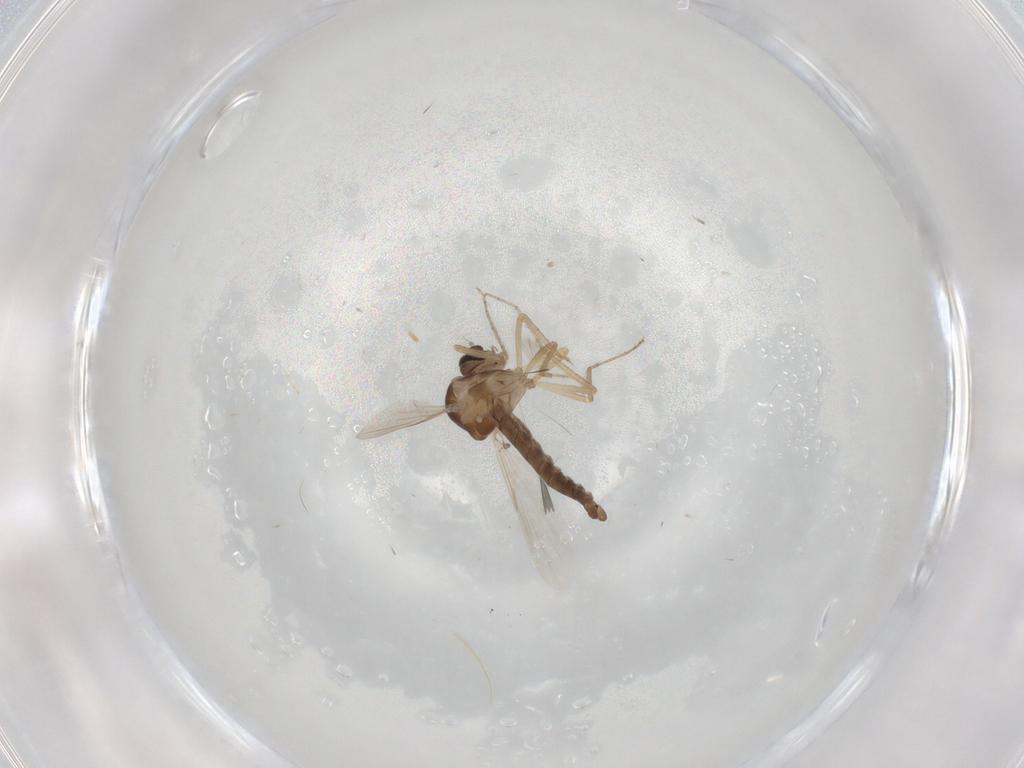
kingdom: Animalia
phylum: Arthropoda
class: Insecta
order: Diptera
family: Ceratopogonidae
